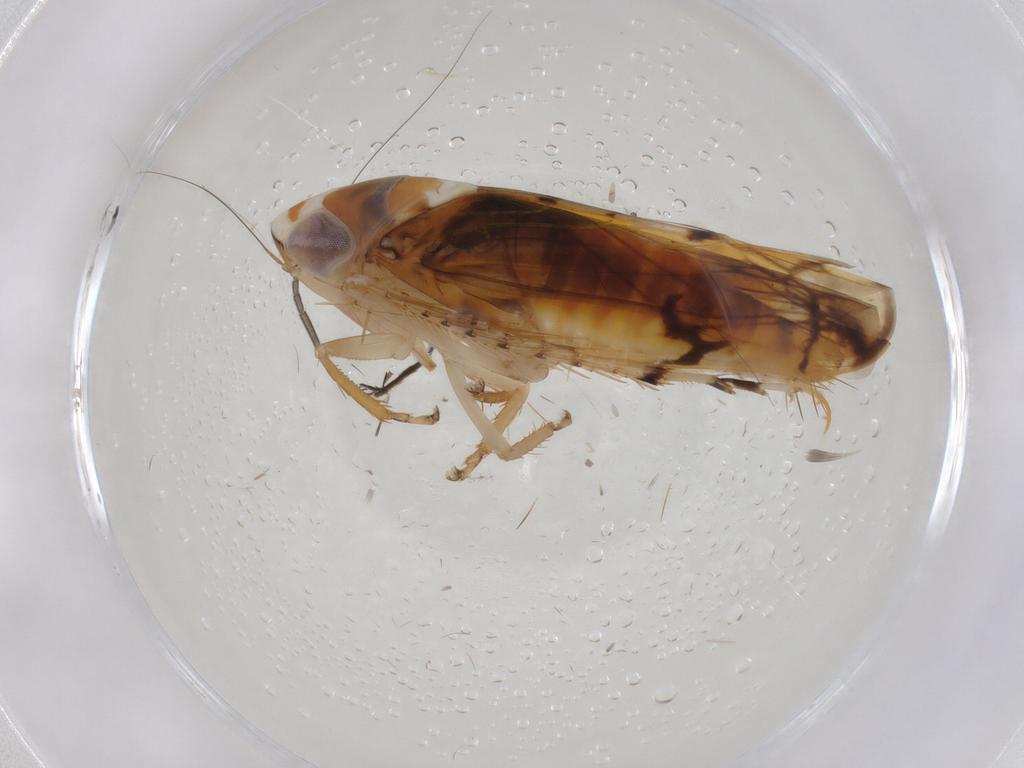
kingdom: Animalia
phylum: Arthropoda
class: Insecta
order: Hemiptera
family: Cicadellidae
